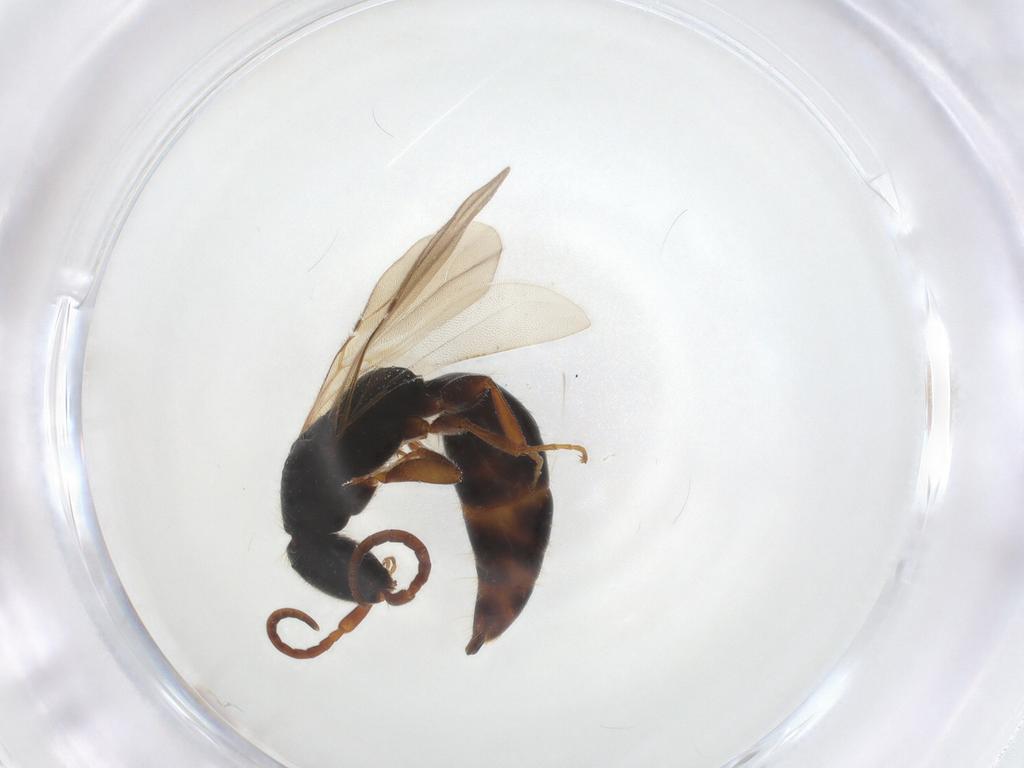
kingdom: Animalia
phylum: Arthropoda
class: Insecta
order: Hymenoptera
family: Bethylidae
